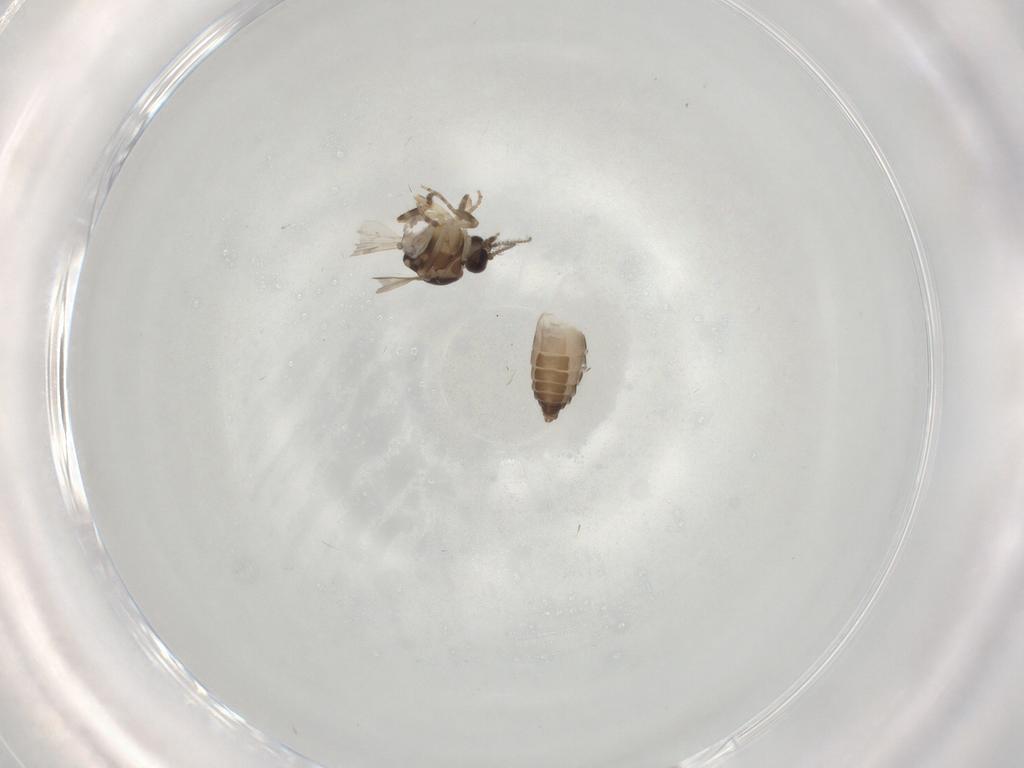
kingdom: Animalia
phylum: Arthropoda
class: Insecta
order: Diptera
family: Ceratopogonidae
